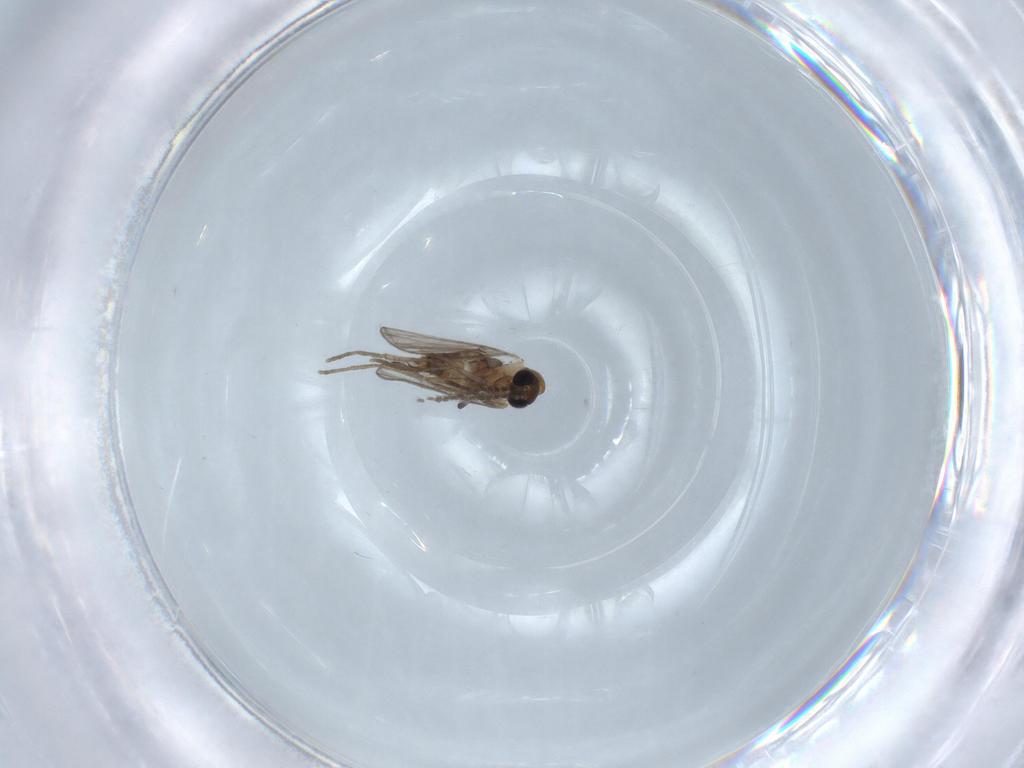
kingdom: Animalia
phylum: Arthropoda
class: Insecta
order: Diptera
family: Psychodidae
